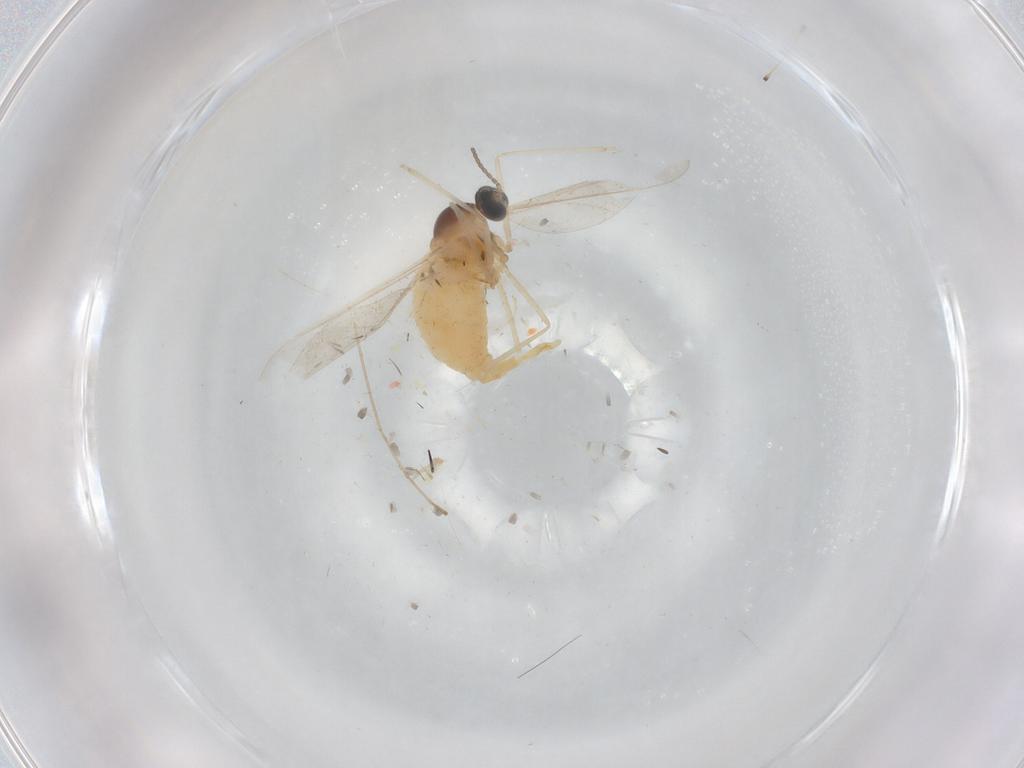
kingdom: Animalia
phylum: Arthropoda
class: Insecta
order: Diptera
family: Cecidomyiidae
